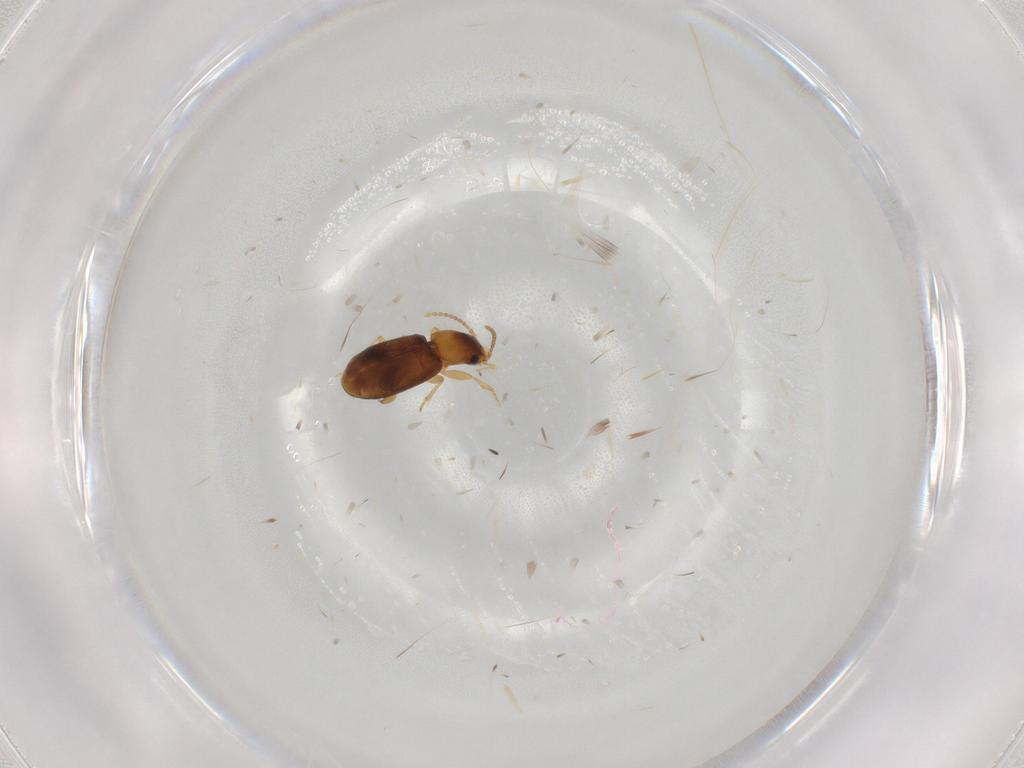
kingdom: Animalia
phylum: Arthropoda
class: Insecta
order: Coleoptera
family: Carabidae
